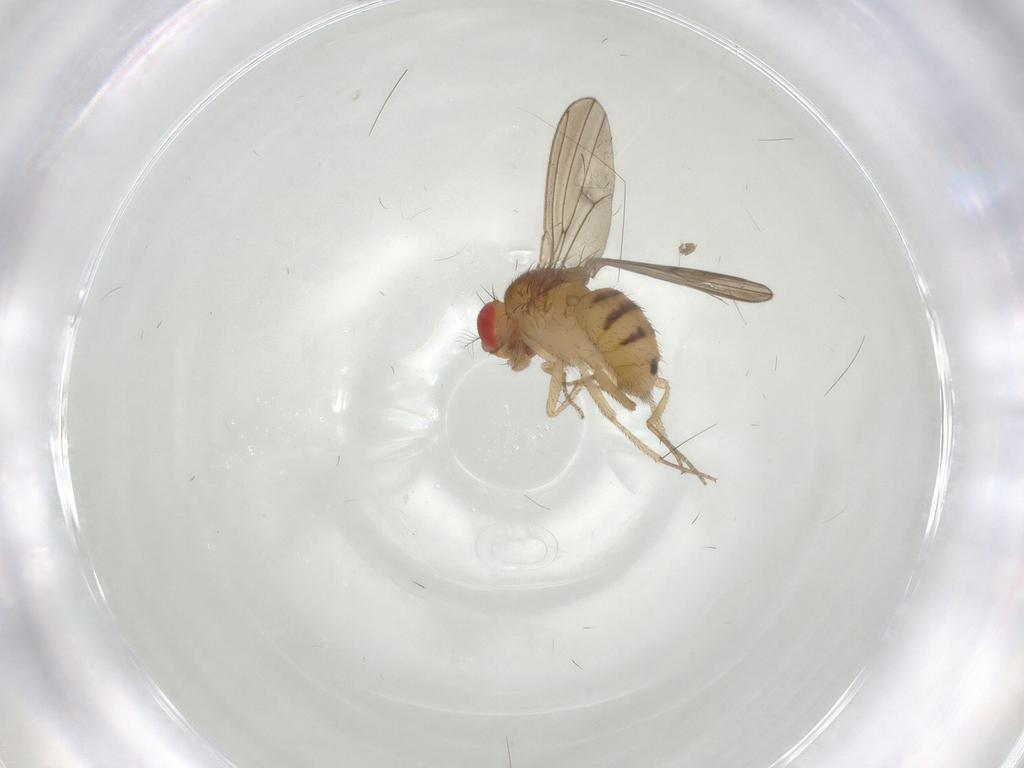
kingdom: Animalia
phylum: Arthropoda
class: Insecta
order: Diptera
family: Drosophilidae
